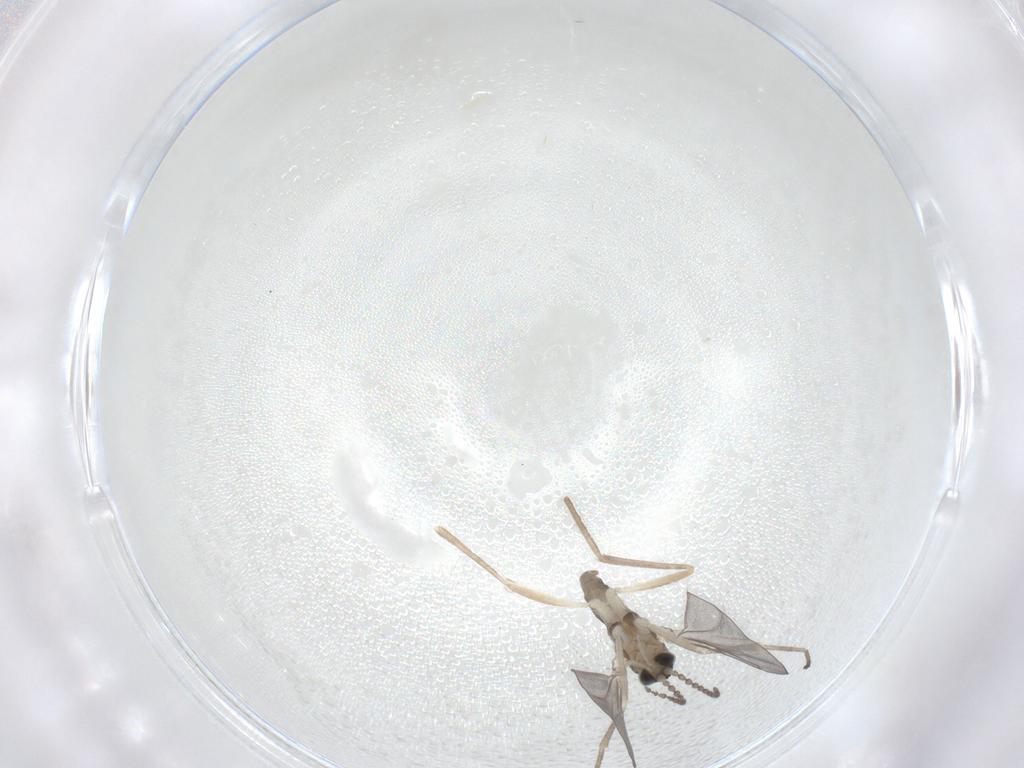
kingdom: Animalia
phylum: Arthropoda
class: Insecta
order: Diptera
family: Cecidomyiidae
